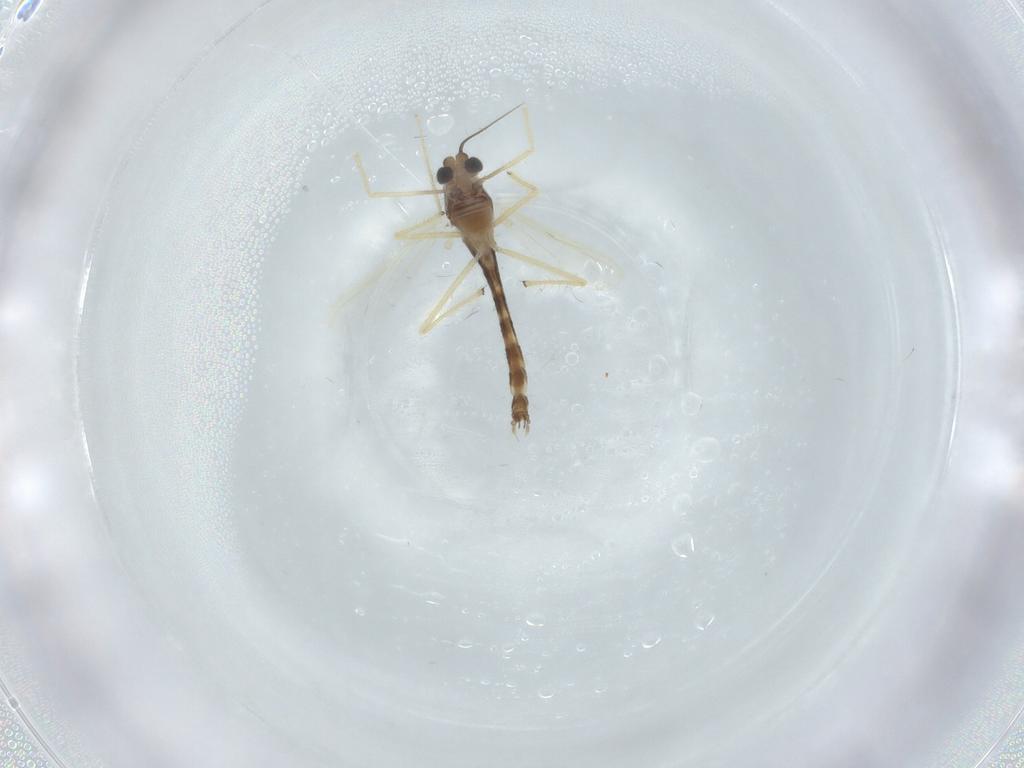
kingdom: Animalia
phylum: Arthropoda
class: Insecta
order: Diptera
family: Chironomidae
